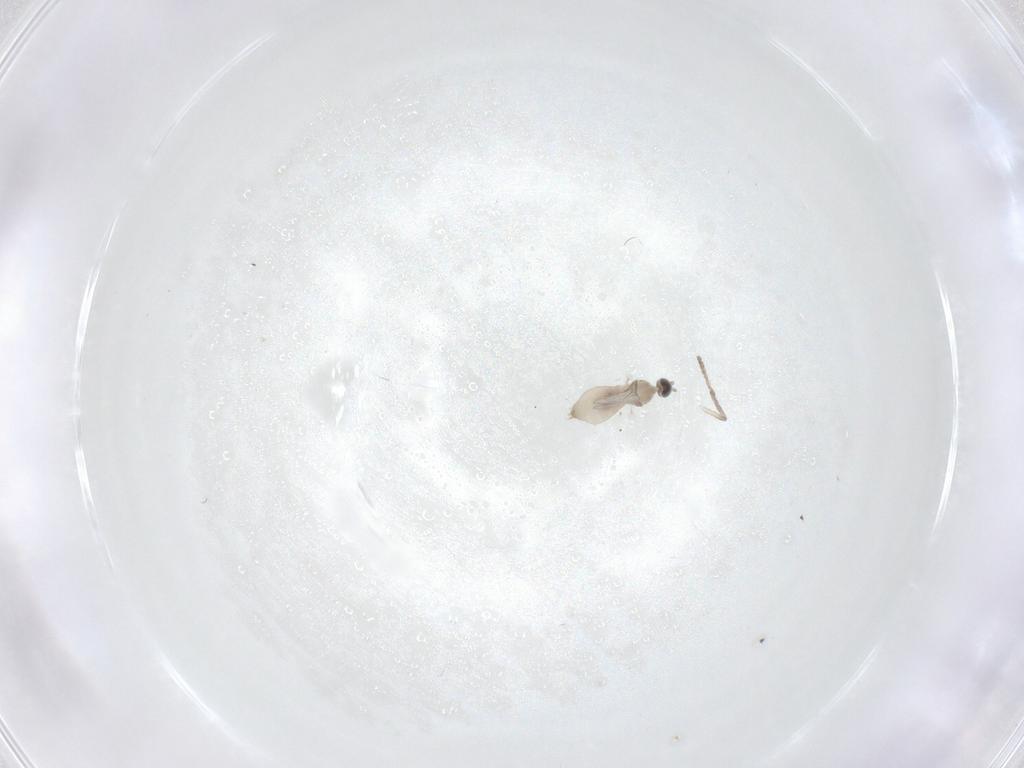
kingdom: Animalia
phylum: Arthropoda
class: Insecta
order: Diptera
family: Cecidomyiidae
